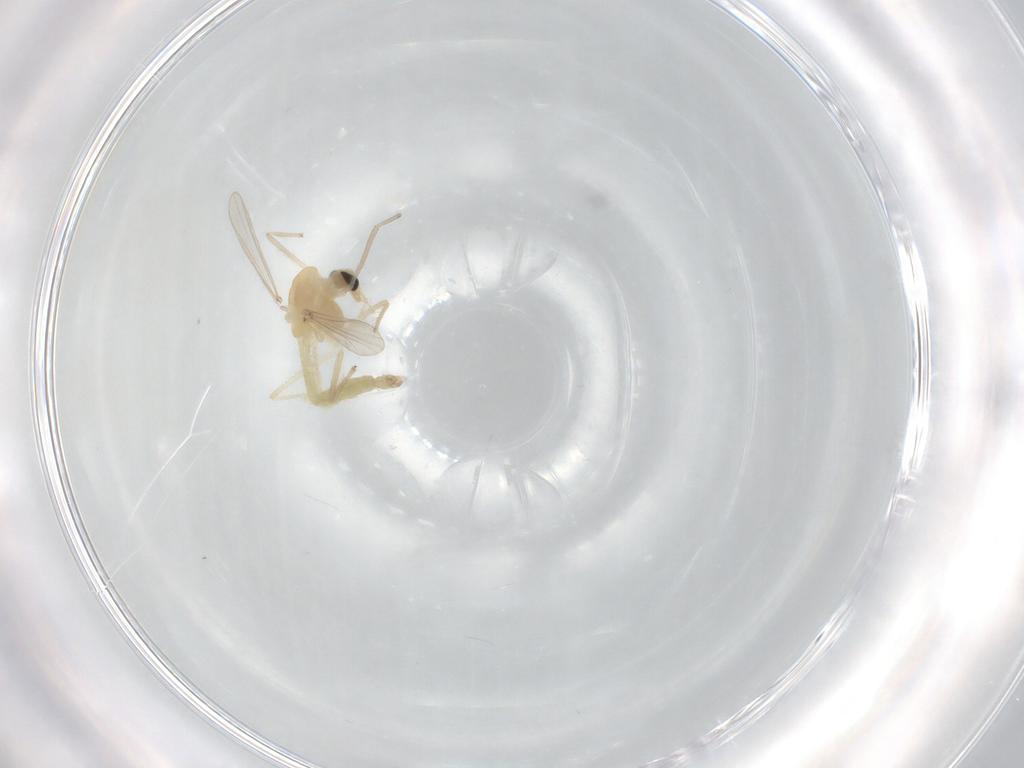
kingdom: Animalia
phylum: Arthropoda
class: Insecta
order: Diptera
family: Chironomidae
